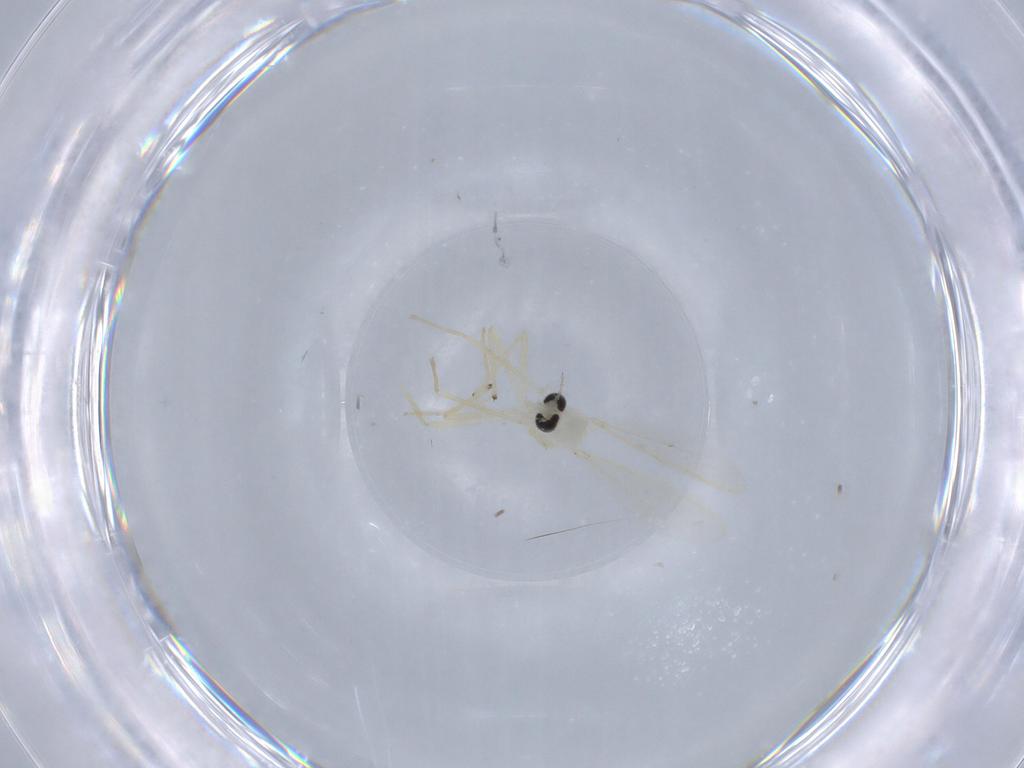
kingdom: Animalia
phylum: Arthropoda
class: Insecta
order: Diptera
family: Chironomidae
